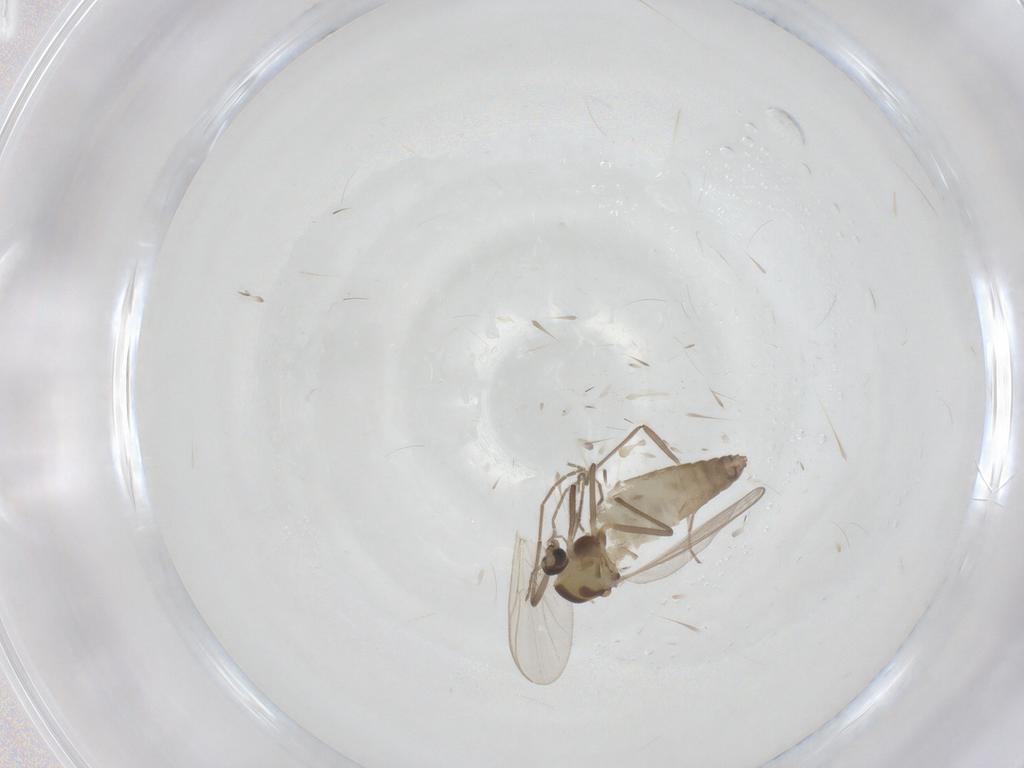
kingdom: Animalia
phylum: Arthropoda
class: Insecta
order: Diptera
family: Chironomidae
